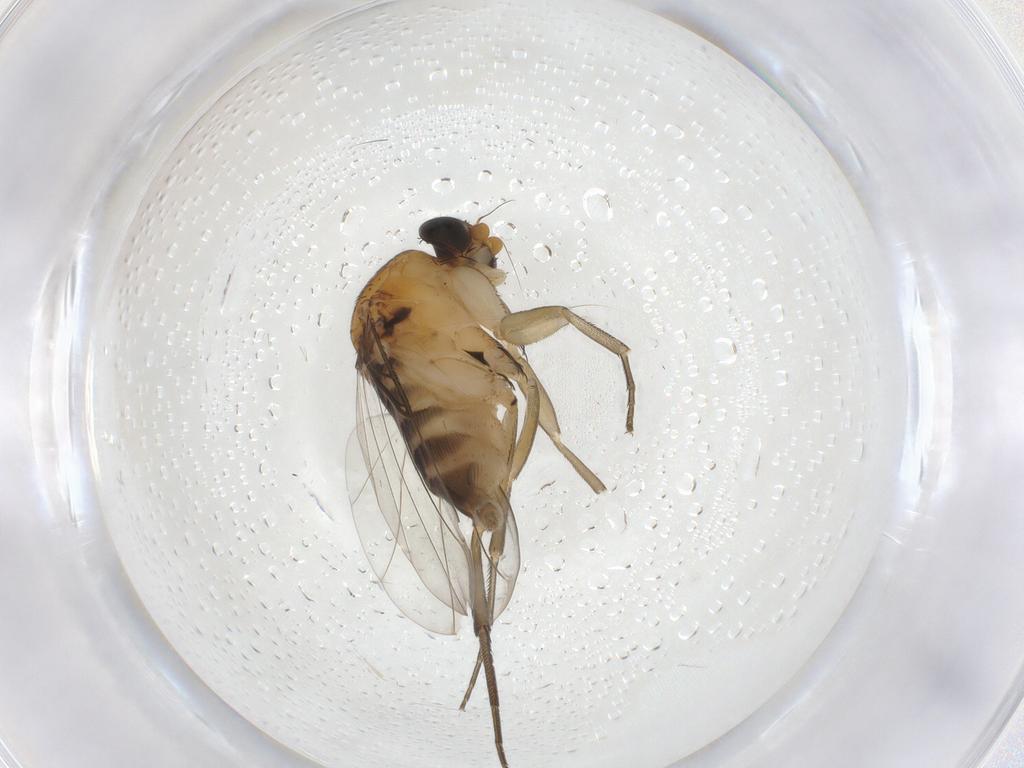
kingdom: Animalia
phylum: Arthropoda
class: Insecta
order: Diptera
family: Phoridae
